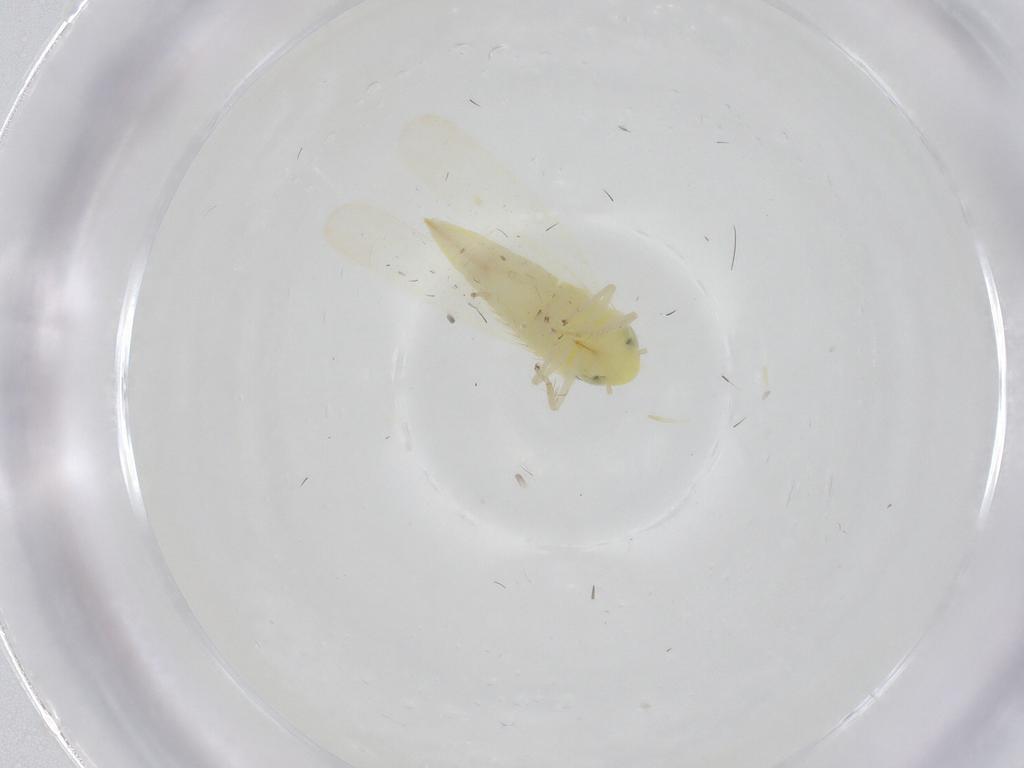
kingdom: Animalia
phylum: Arthropoda
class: Insecta
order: Hemiptera
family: Cicadellidae
